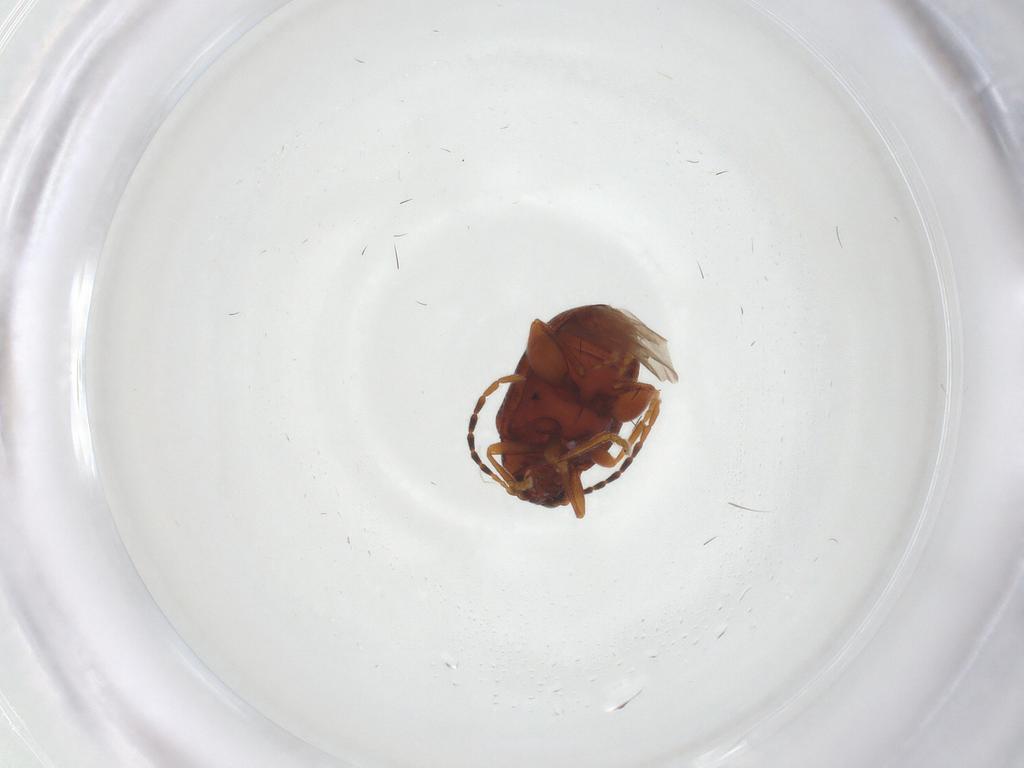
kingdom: Animalia
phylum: Arthropoda
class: Insecta
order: Coleoptera
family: Chrysomelidae
